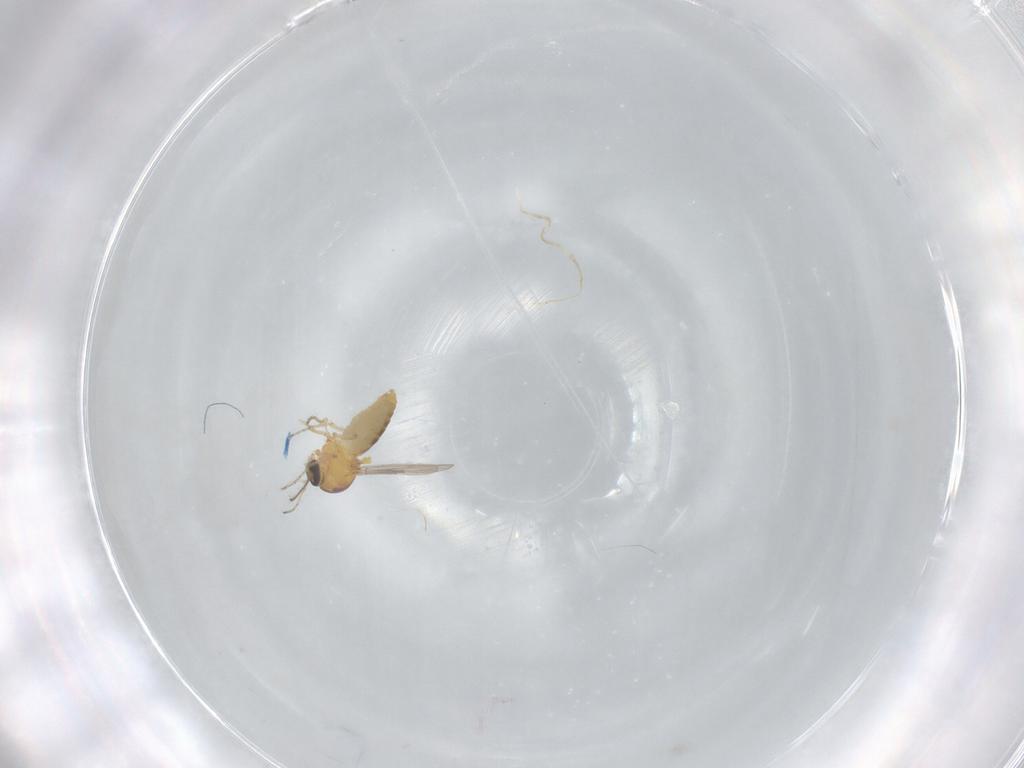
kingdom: Animalia
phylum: Arthropoda
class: Insecta
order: Diptera
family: Ceratopogonidae
